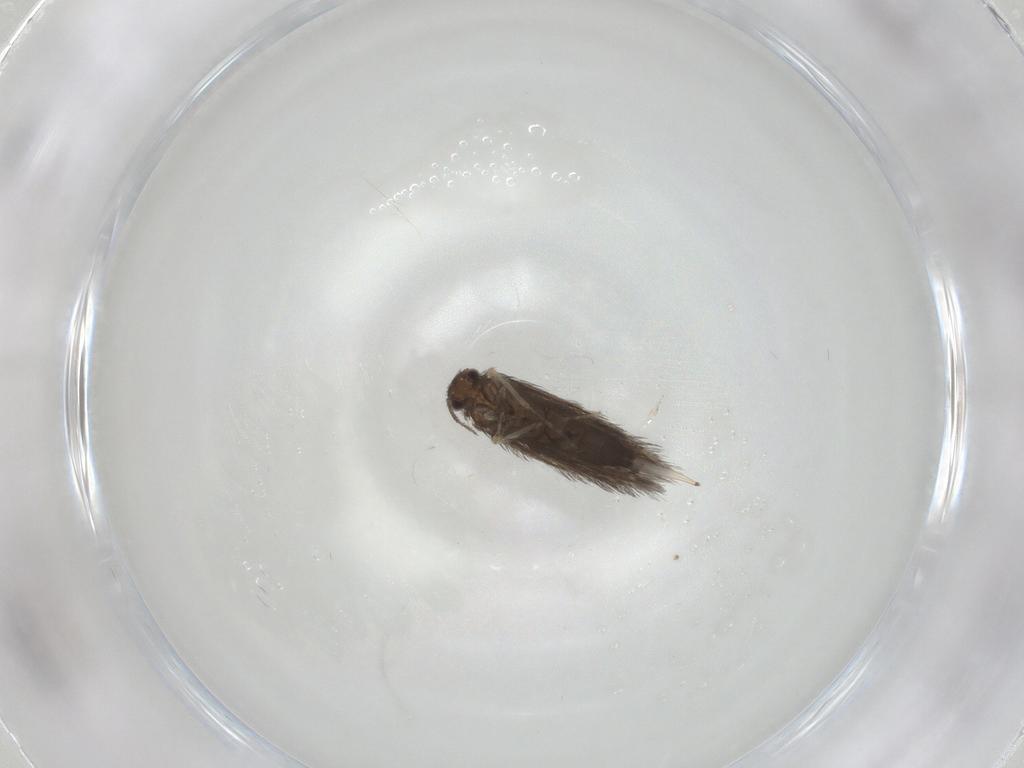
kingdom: Animalia
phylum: Arthropoda
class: Insecta
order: Trichoptera
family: Hydroptilidae
